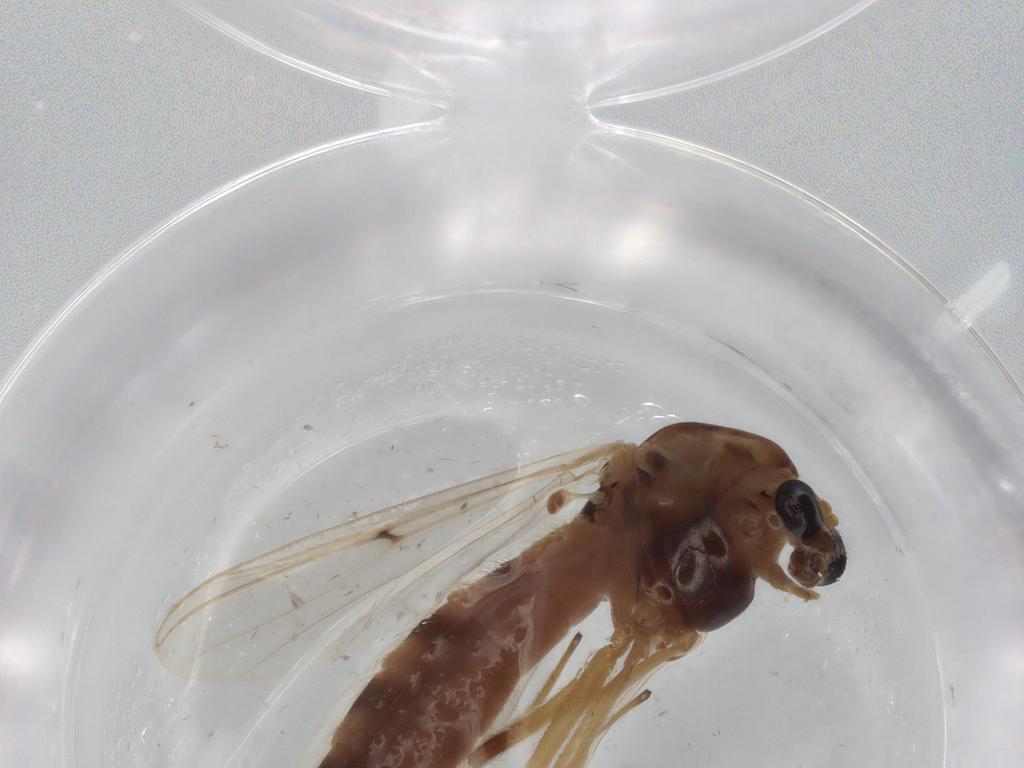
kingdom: Animalia
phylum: Arthropoda
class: Insecta
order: Diptera
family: Chironomidae
